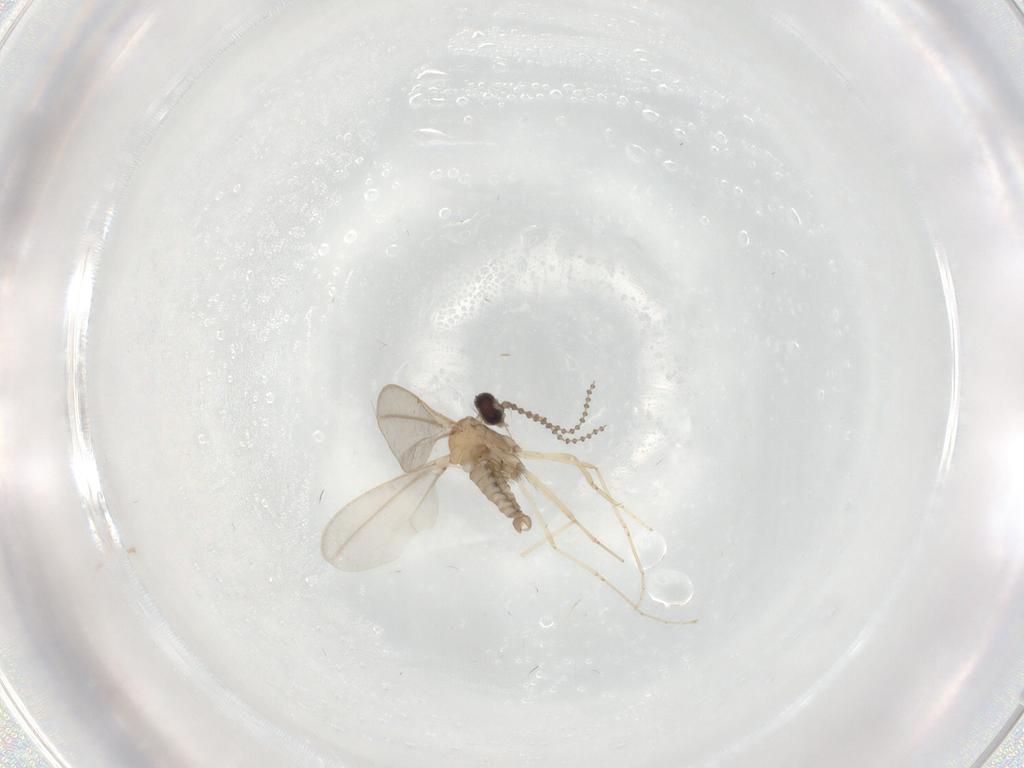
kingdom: Animalia
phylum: Arthropoda
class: Insecta
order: Diptera
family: Cecidomyiidae
